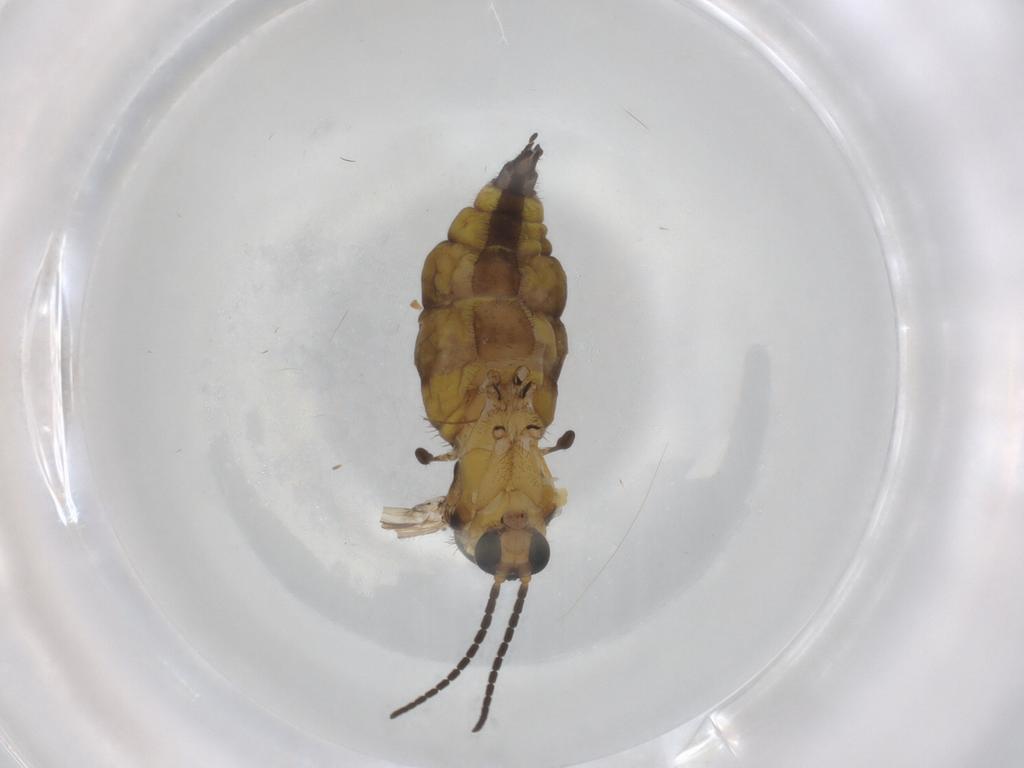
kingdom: Animalia
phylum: Arthropoda
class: Insecta
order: Diptera
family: Sciaridae
